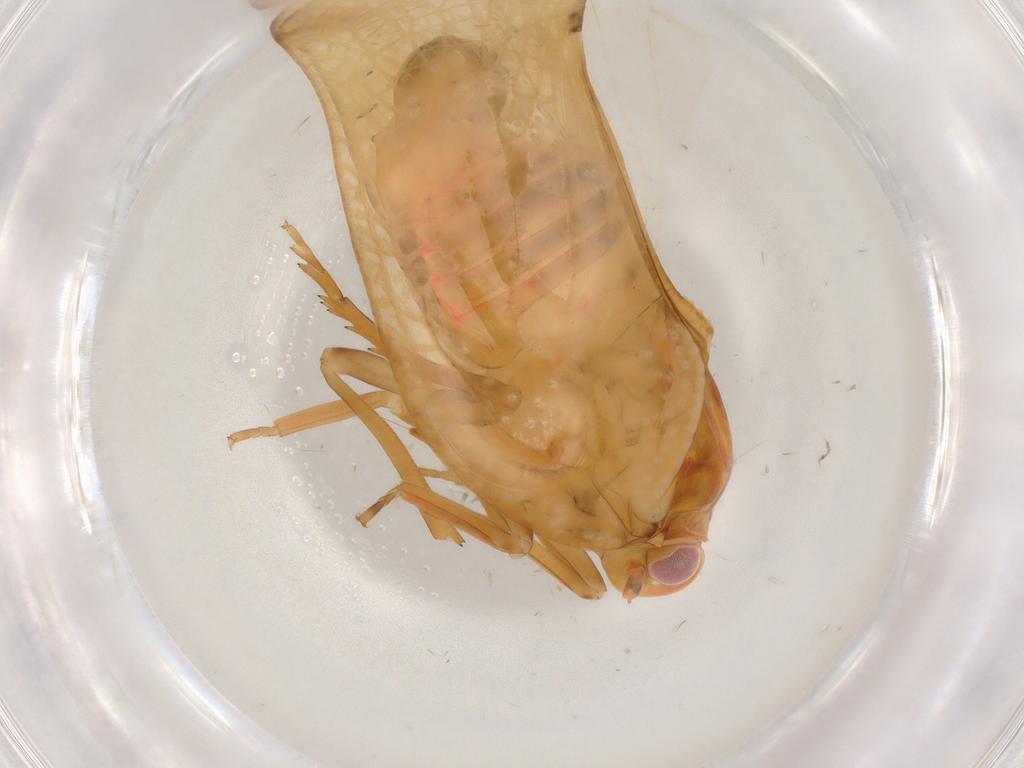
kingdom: Animalia
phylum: Arthropoda
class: Insecta
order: Hemiptera
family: Flatidae
